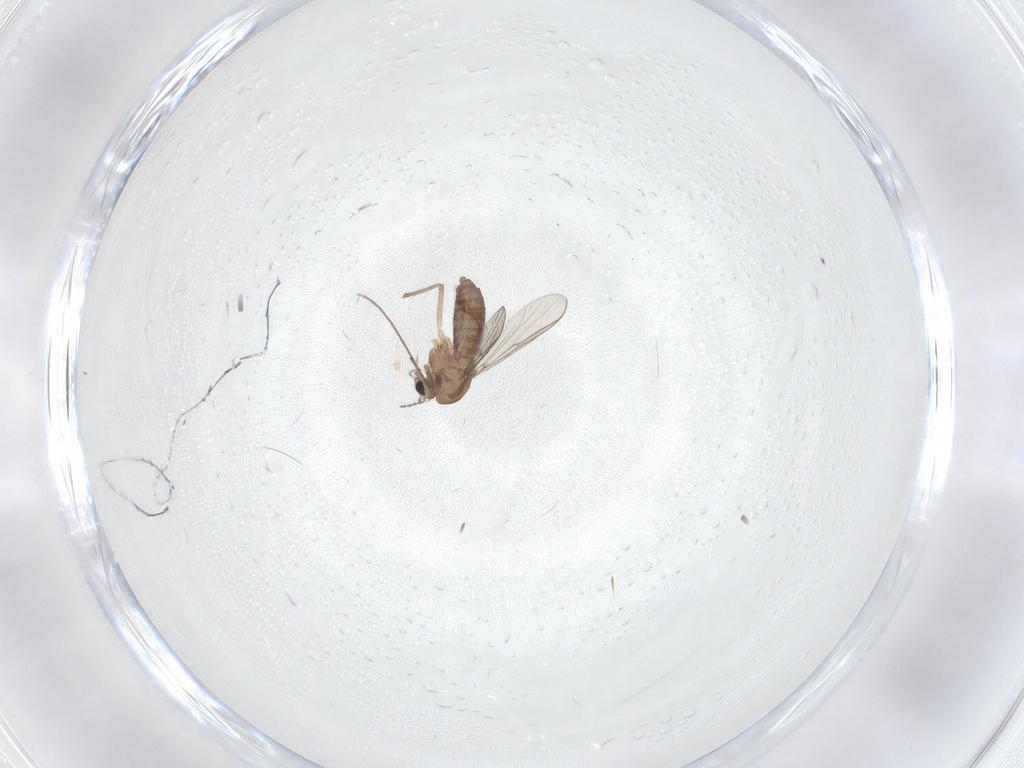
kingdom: Animalia
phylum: Arthropoda
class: Insecta
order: Diptera
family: Chironomidae
